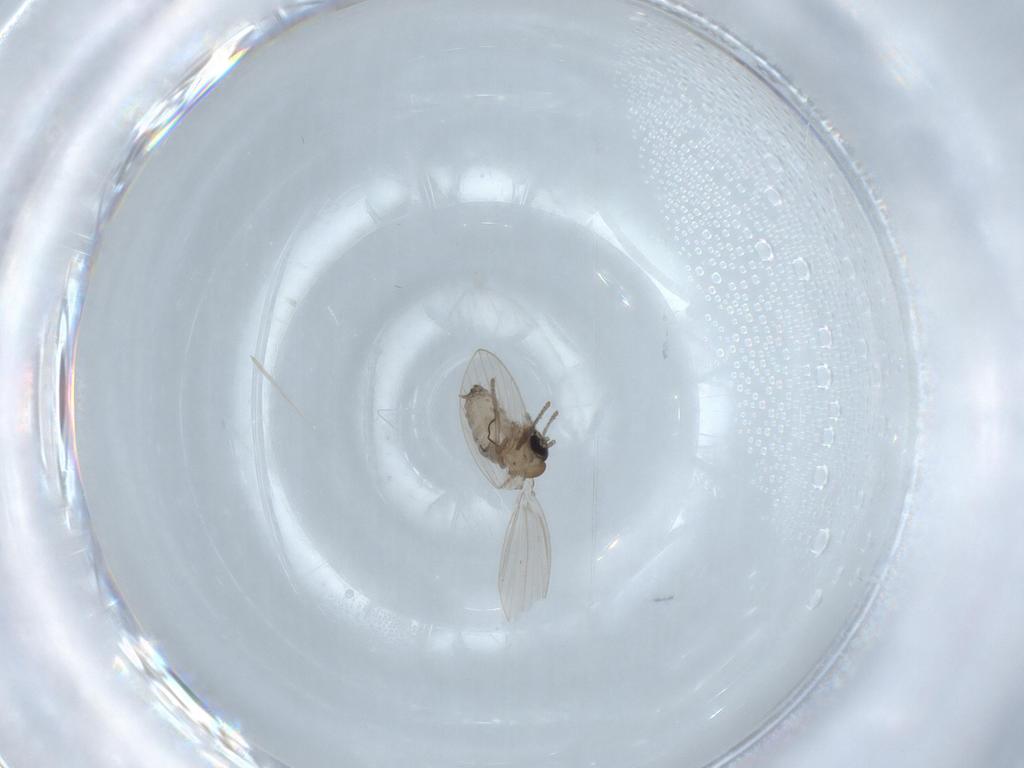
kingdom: Animalia
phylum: Arthropoda
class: Insecta
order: Diptera
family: Psychodidae
